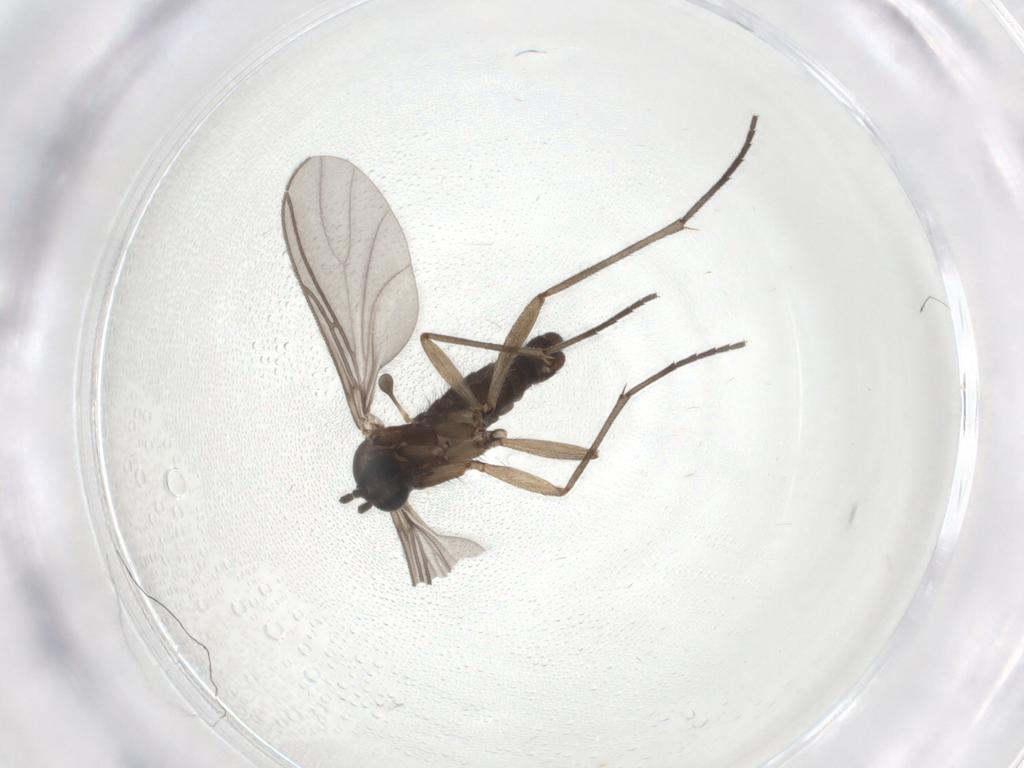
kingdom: Animalia
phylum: Arthropoda
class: Insecta
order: Diptera
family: Sciaridae
